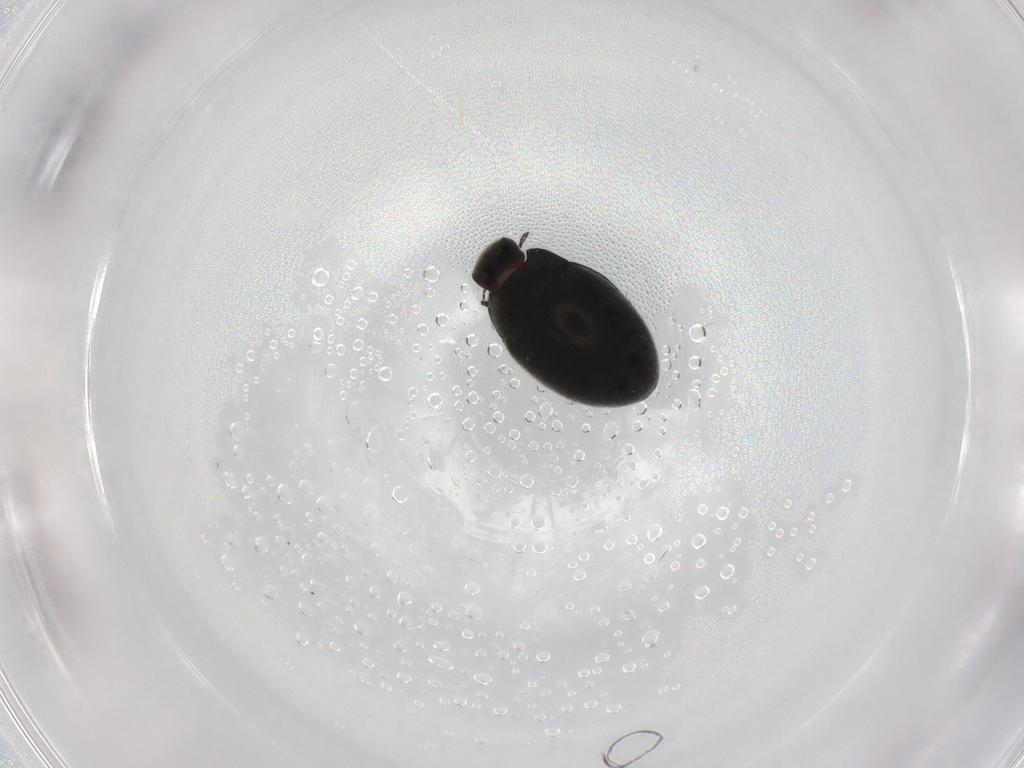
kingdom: Animalia
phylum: Arthropoda
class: Insecta
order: Coleoptera
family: Limnichidae
